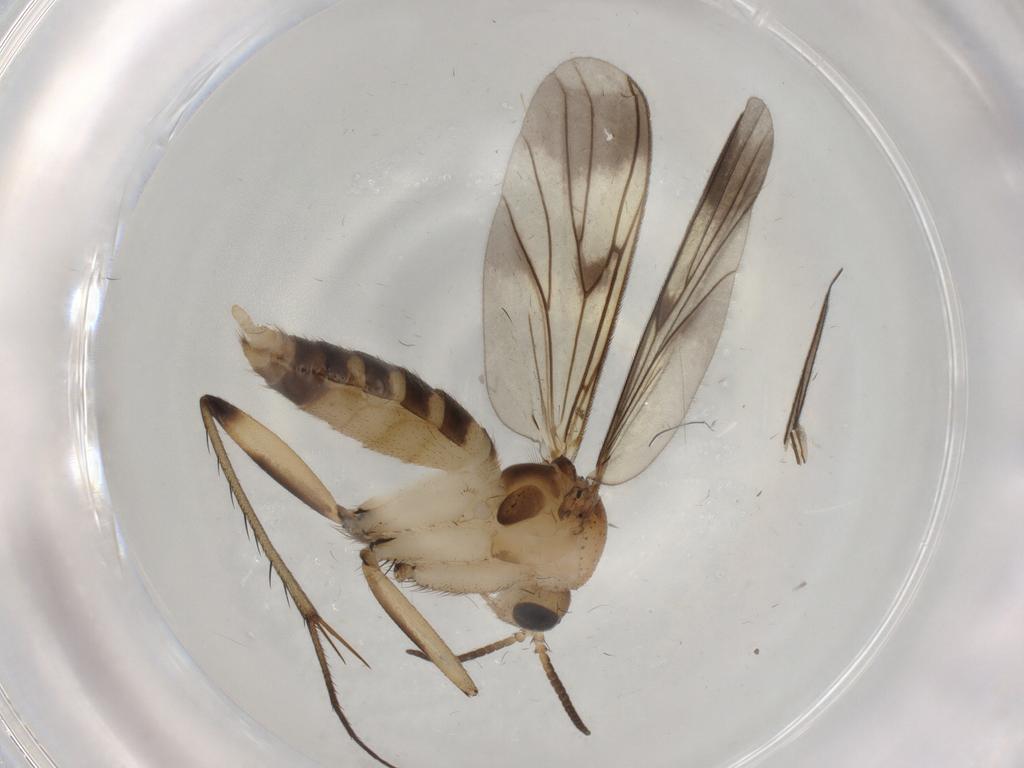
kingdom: Animalia
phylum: Arthropoda
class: Insecta
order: Diptera
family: Mycetophilidae
